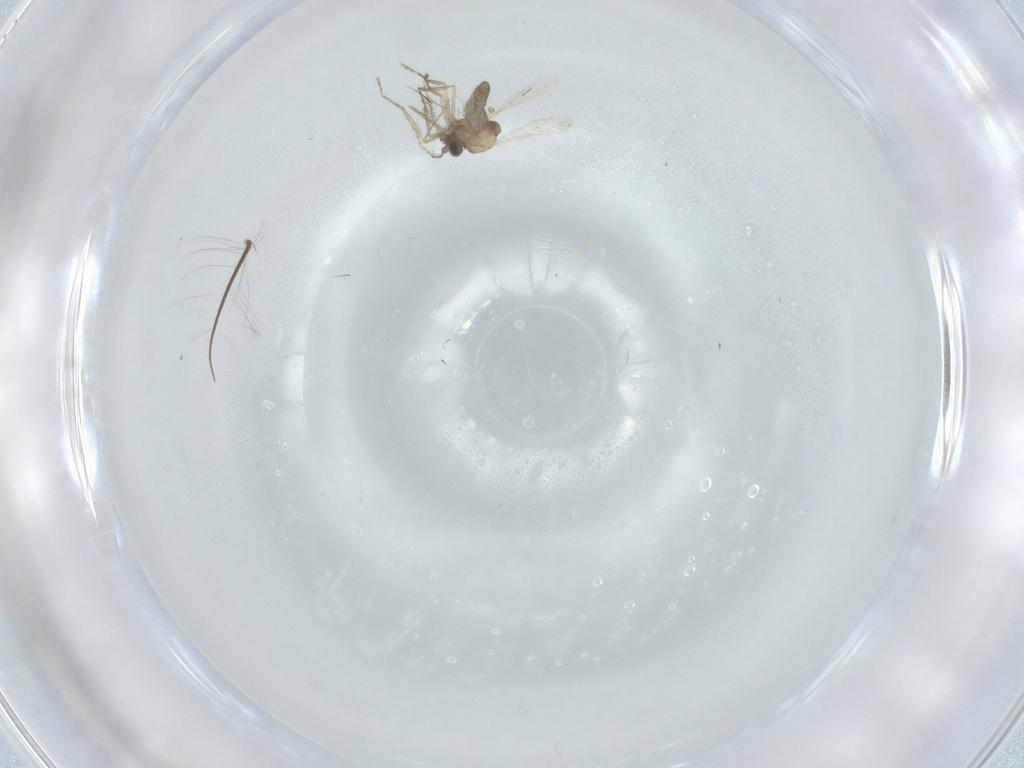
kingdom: Animalia
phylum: Arthropoda
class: Insecta
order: Diptera
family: Ceratopogonidae
